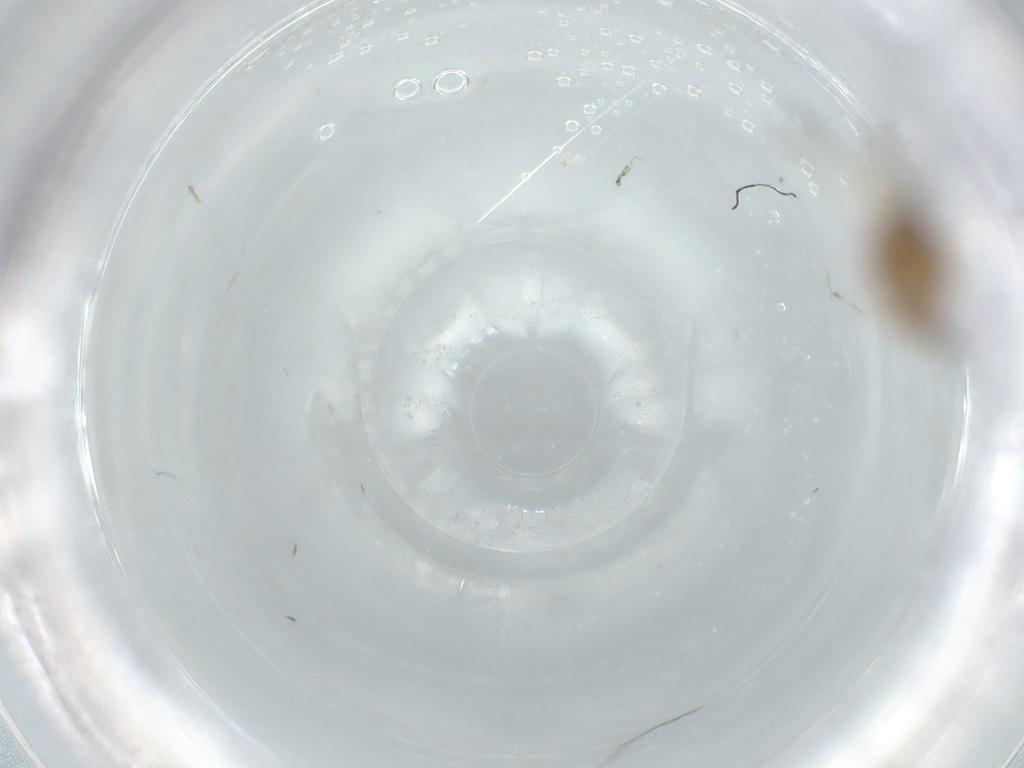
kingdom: Animalia
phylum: Arthropoda
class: Insecta
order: Hemiptera
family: Aphididae
